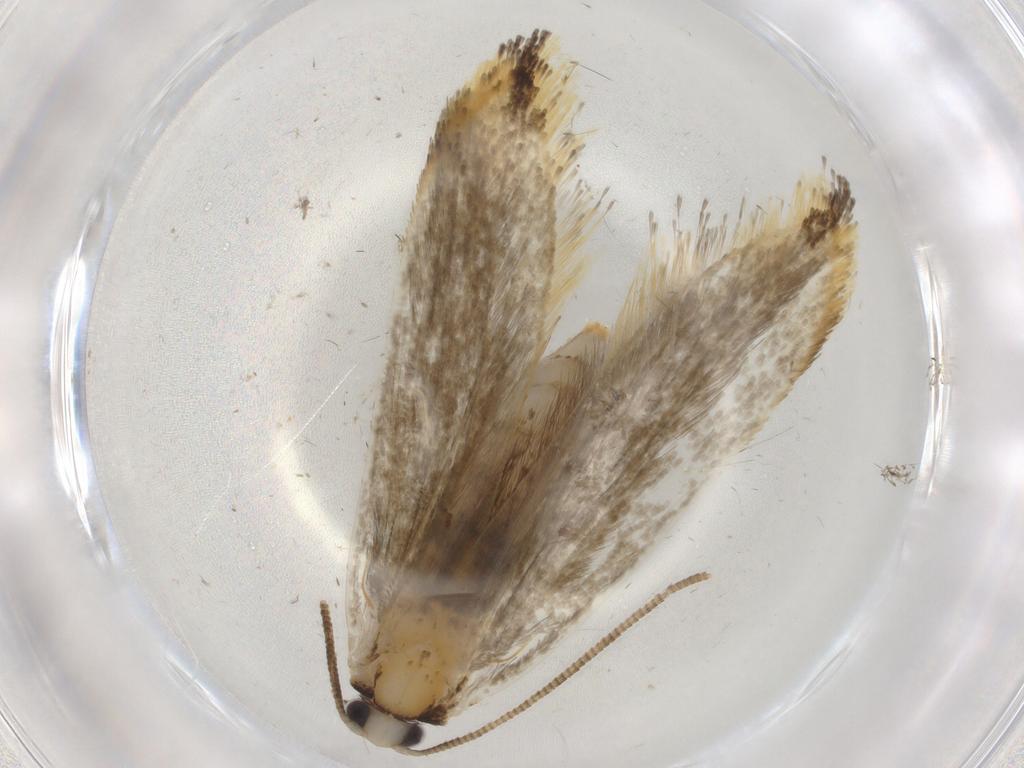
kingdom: Animalia
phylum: Arthropoda
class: Insecta
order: Lepidoptera
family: Tineidae
